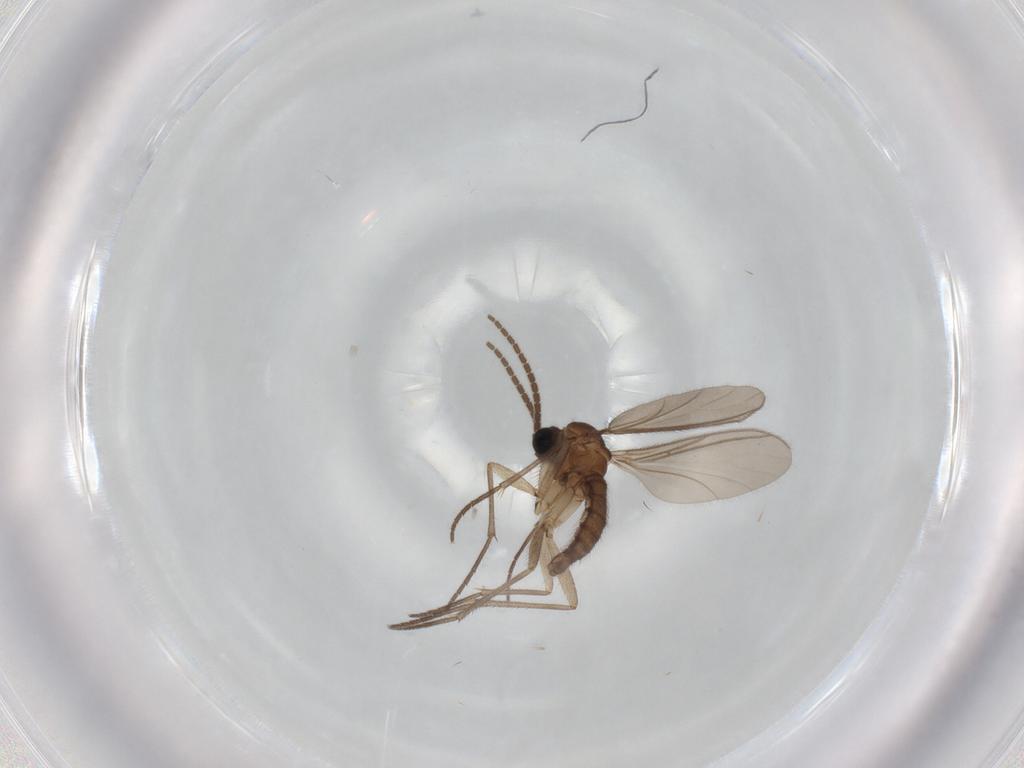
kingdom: Animalia
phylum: Arthropoda
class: Insecta
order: Diptera
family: Sciaridae
